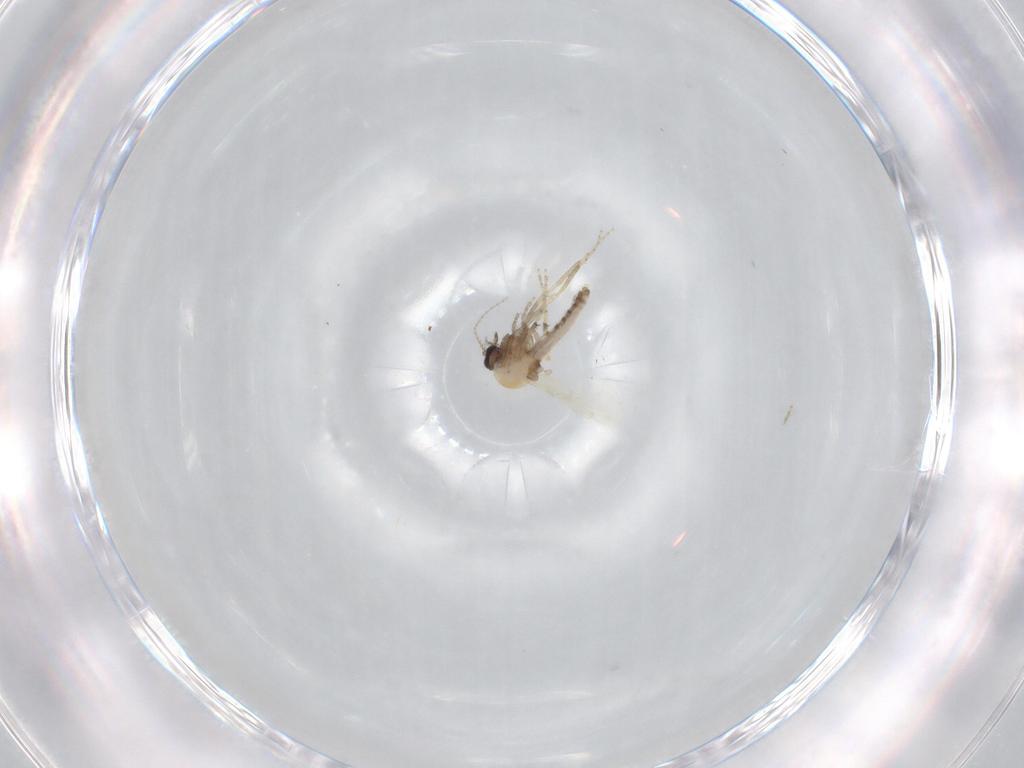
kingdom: Animalia
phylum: Arthropoda
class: Insecta
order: Diptera
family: Ceratopogonidae
